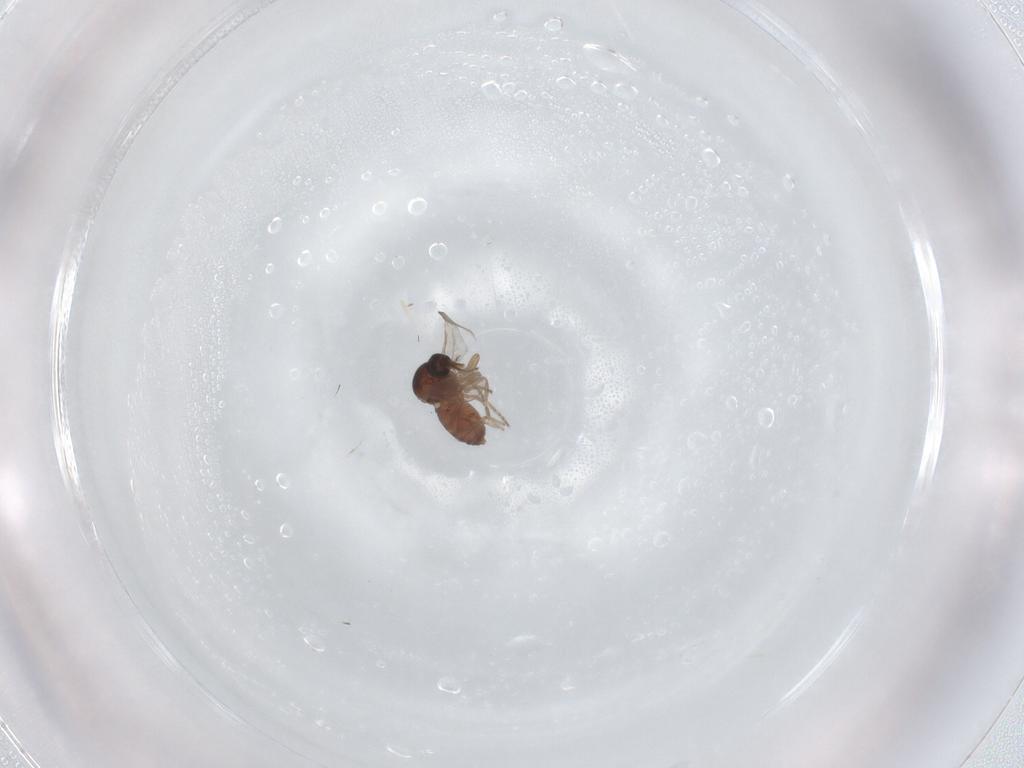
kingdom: Animalia
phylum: Arthropoda
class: Insecta
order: Diptera
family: Ceratopogonidae
